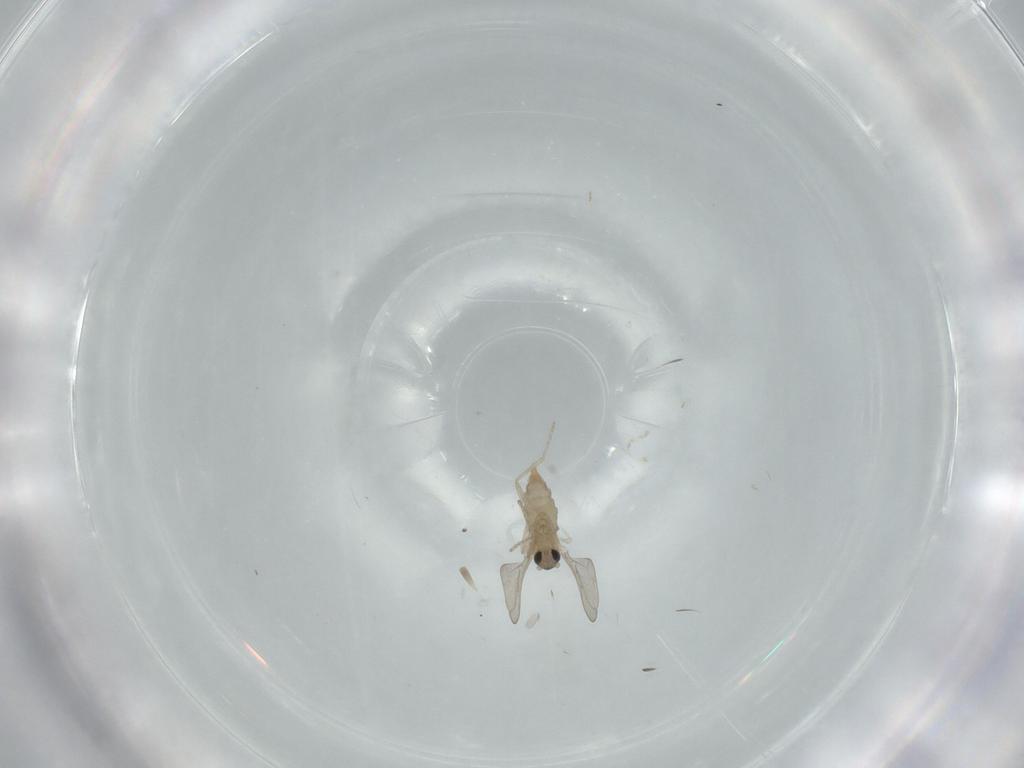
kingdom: Animalia
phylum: Arthropoda
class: Insecta
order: Diptera
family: Cecidomyiidae
